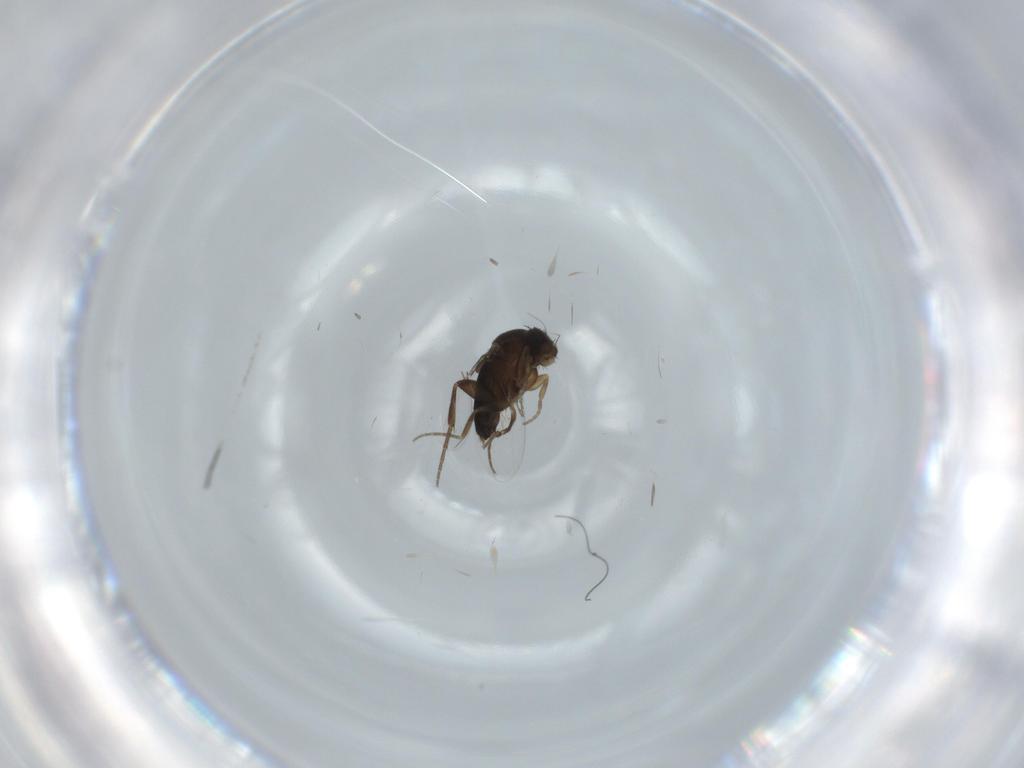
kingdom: Animalia
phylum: Arthropoda
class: Insecta
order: Diptera
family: Phoridae
